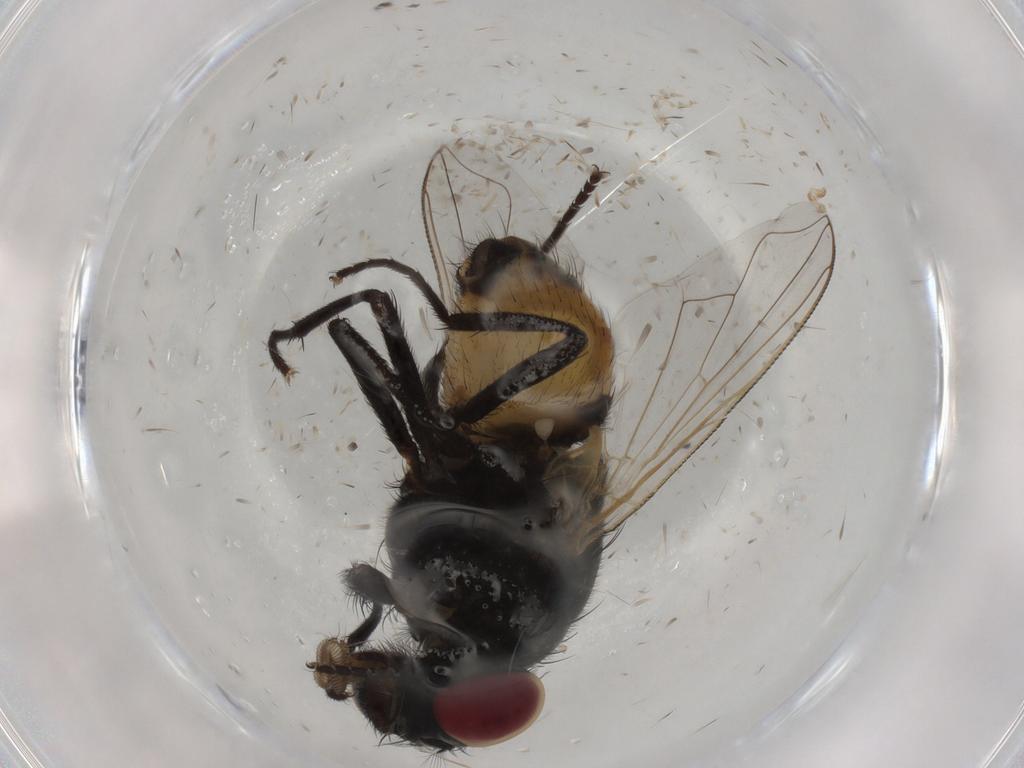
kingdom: Animalia
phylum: Arthropoda
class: Insecta
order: Diptera
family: Muscidae
